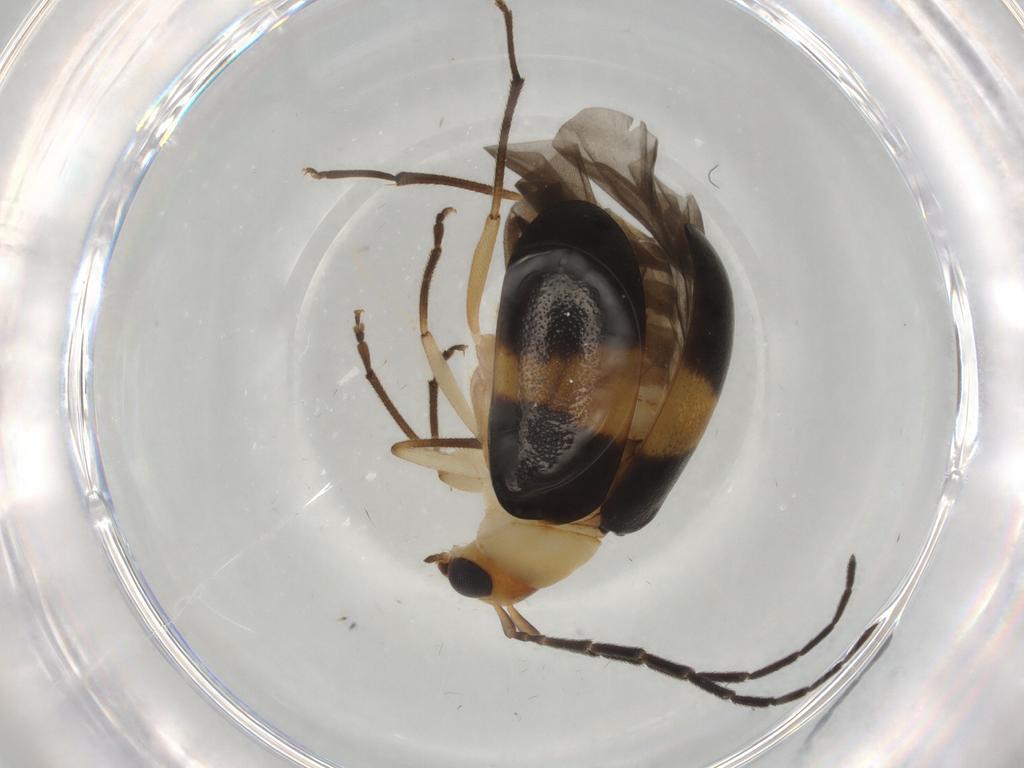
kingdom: Animalia
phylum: Arthropoda
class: Insecta
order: Coleoptera
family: Chrysomelidae
